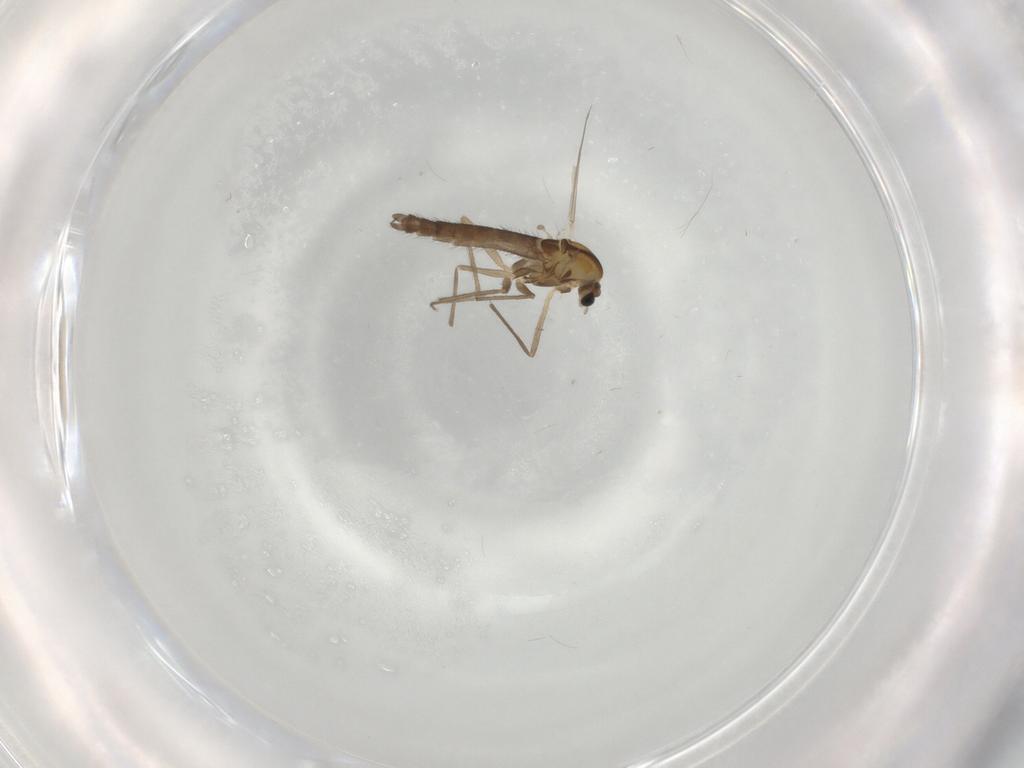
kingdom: Animalia
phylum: Arthropoda
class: Insecta
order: Diptera
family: Chironomidae
